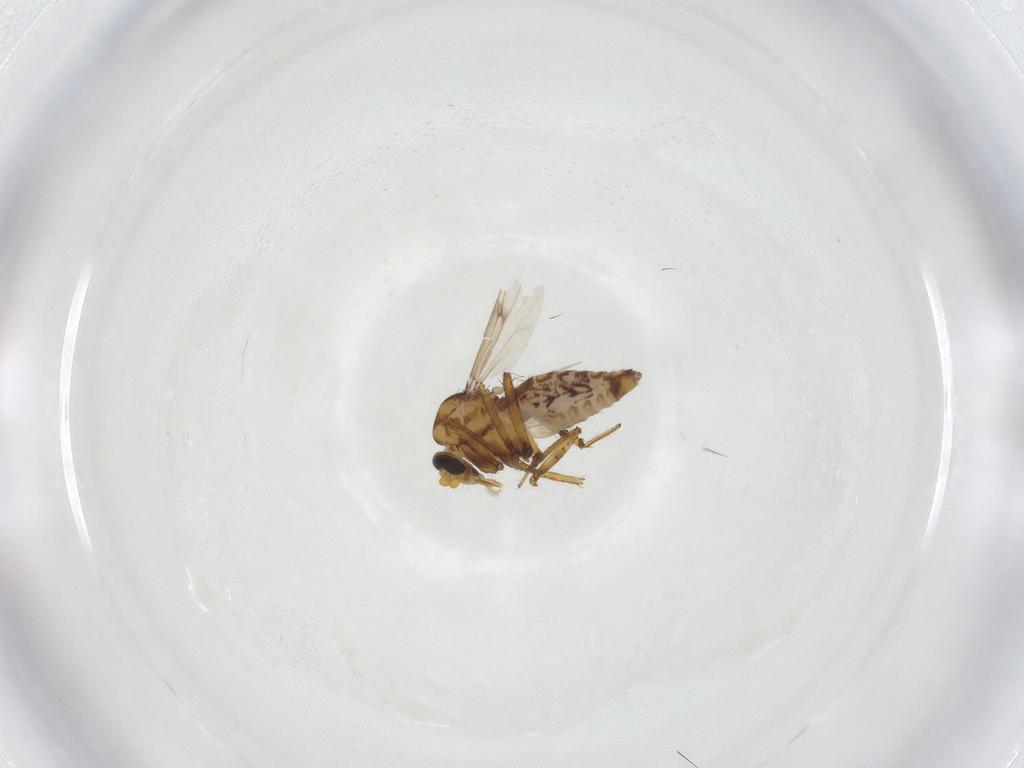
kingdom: Animalia
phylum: Arthropoda
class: Insecta
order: Diptera
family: Ceratopogonidae
